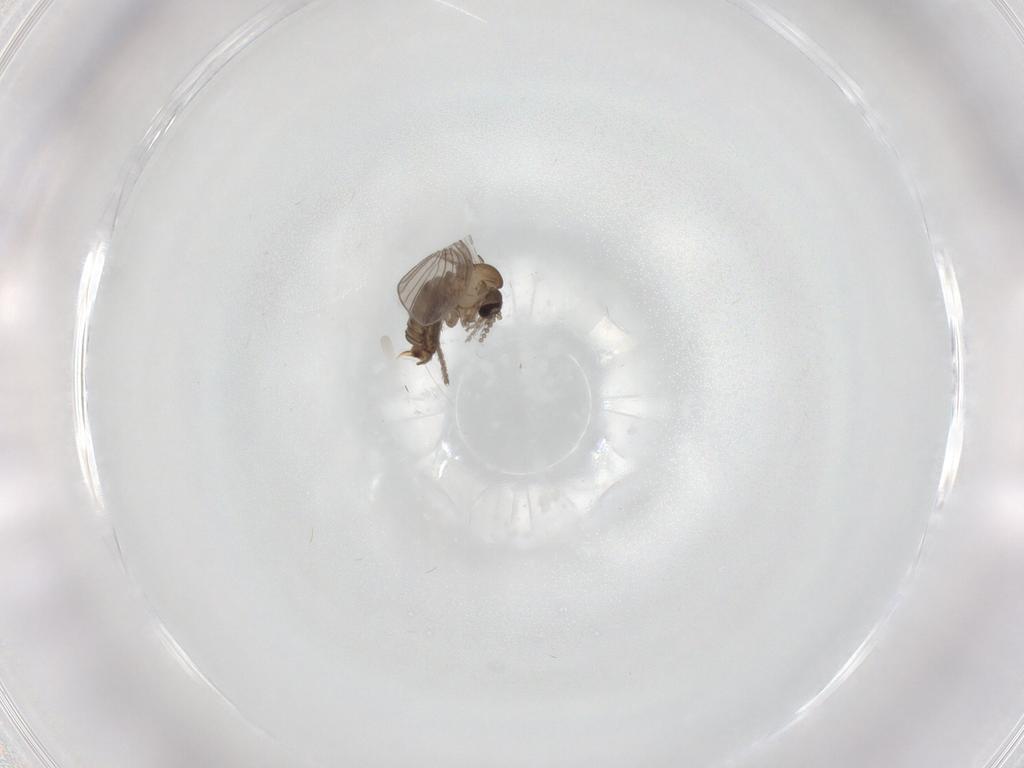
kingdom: Animalia
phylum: Arthropoda
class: Insecta
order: Diptera
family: Psychodidae
